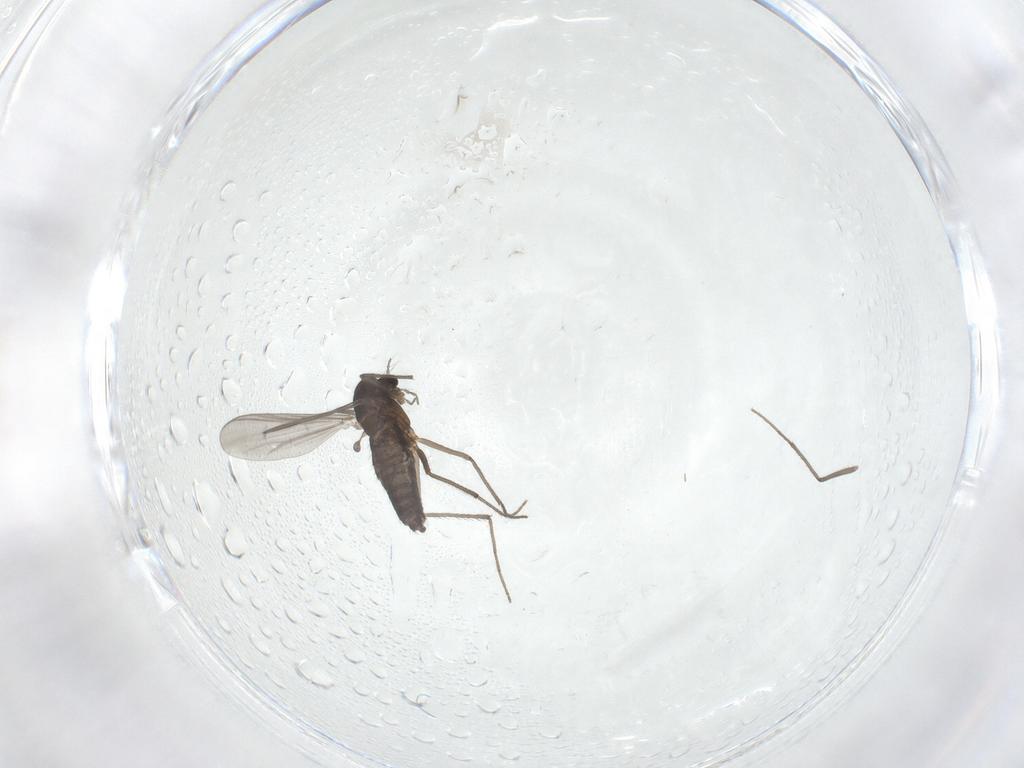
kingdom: Animalia
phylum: Arthropoda
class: Insecta
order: Diptera
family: Chironomidae
